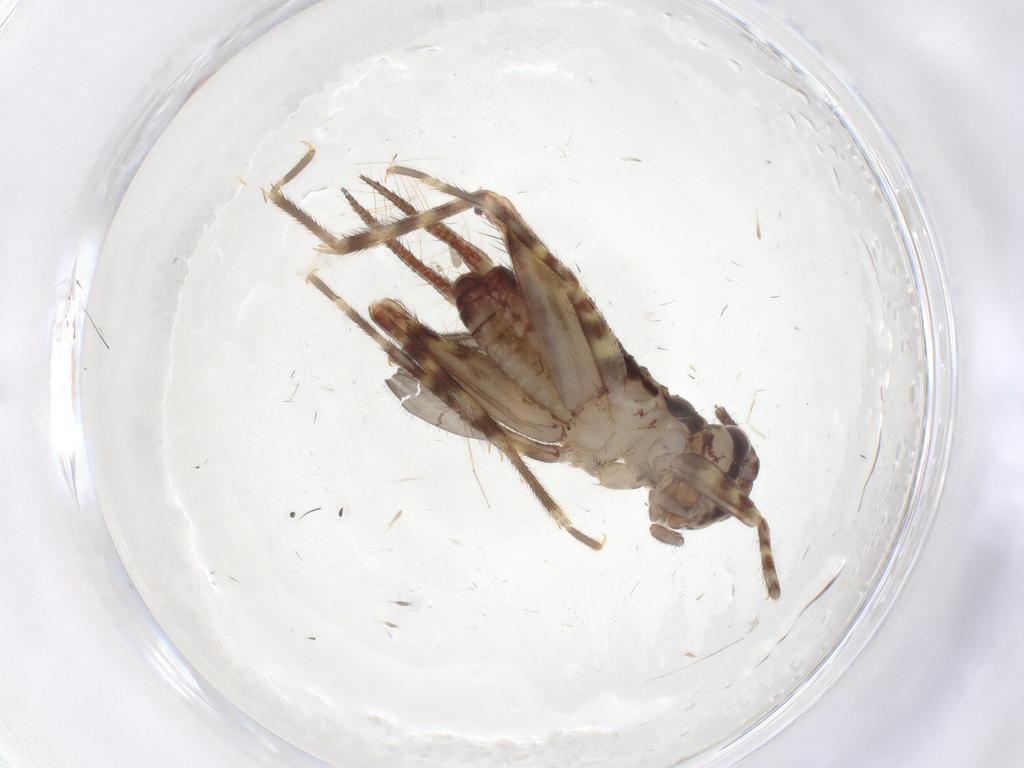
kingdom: Animalia
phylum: Arthropoda
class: Insecta
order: Orthoptera
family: Gryllidae
